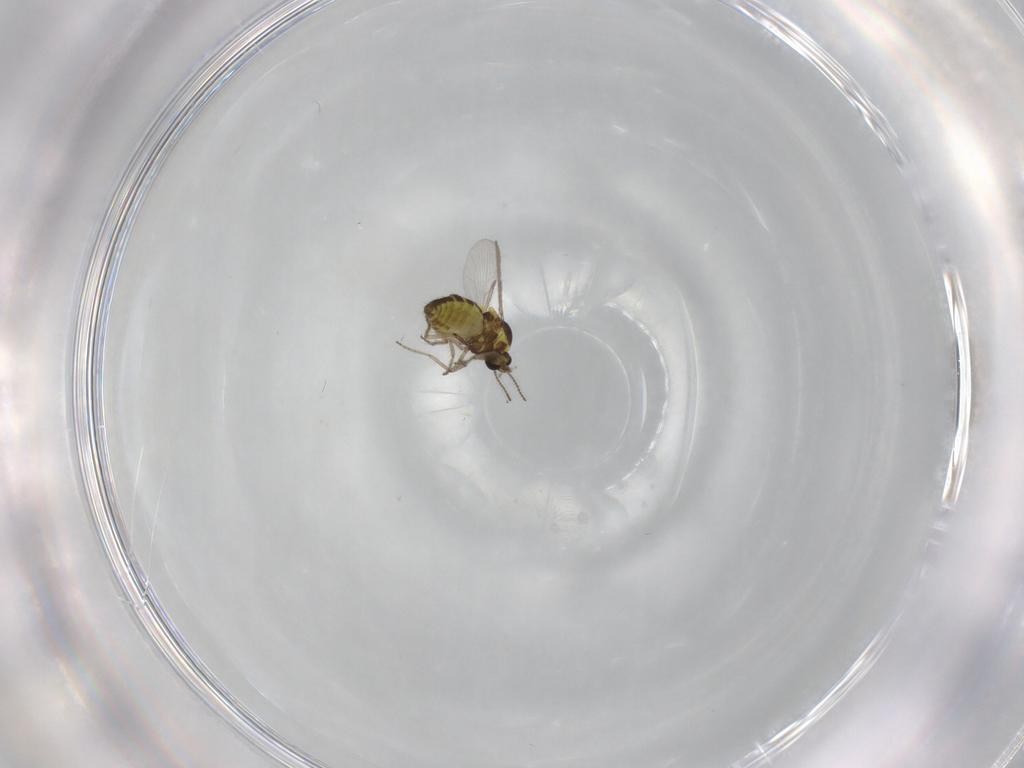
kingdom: Animalia
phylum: Arthropoda
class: Insecta
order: Diptera
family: Ceratopogonidae
